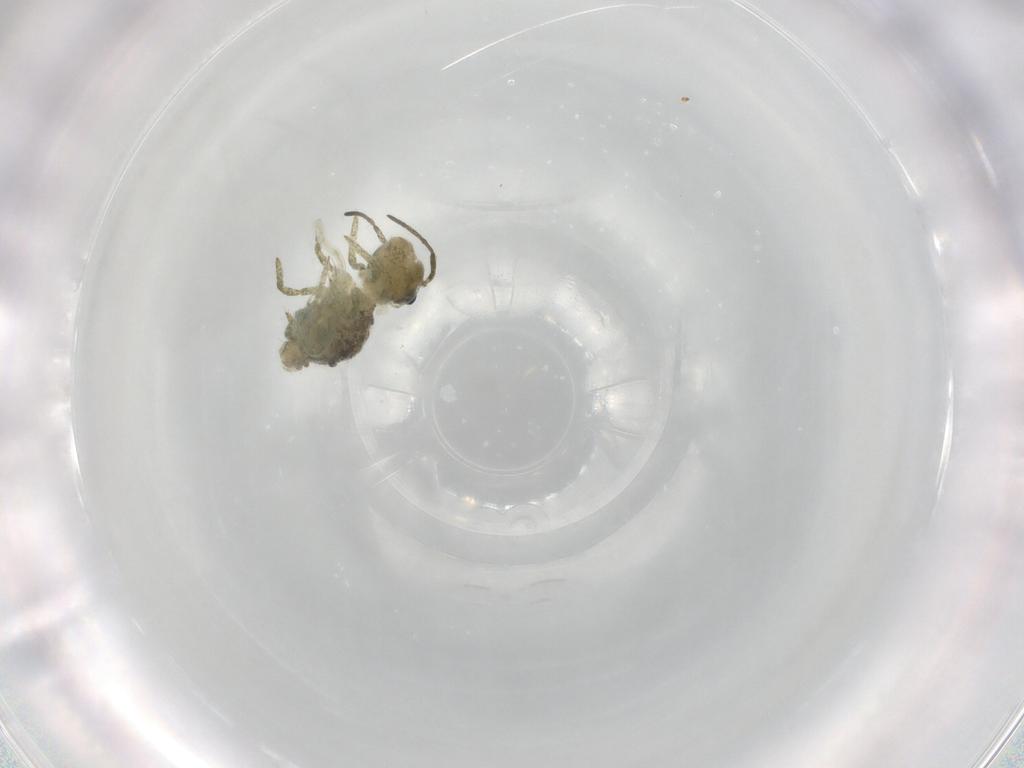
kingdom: Animalia
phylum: Arthropoda
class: Collembola
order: Symphypleona
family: Sminthuridae
